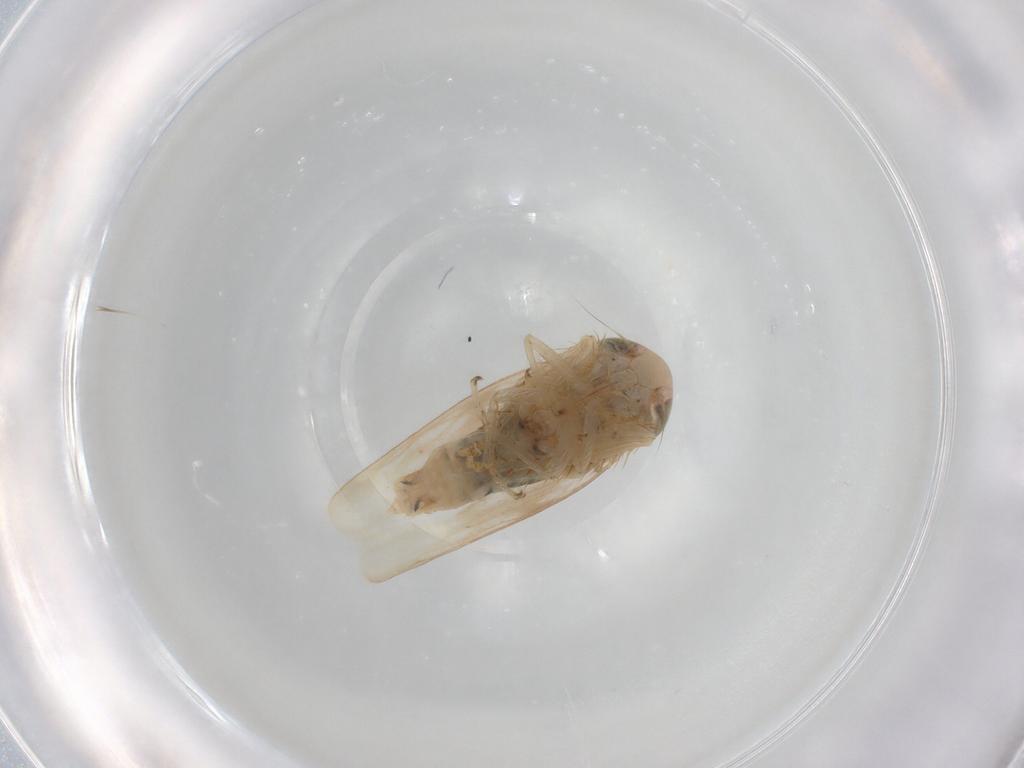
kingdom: Animalia
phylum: Arthropoda
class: Insecta
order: Hemiptera
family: Cicadellidae
